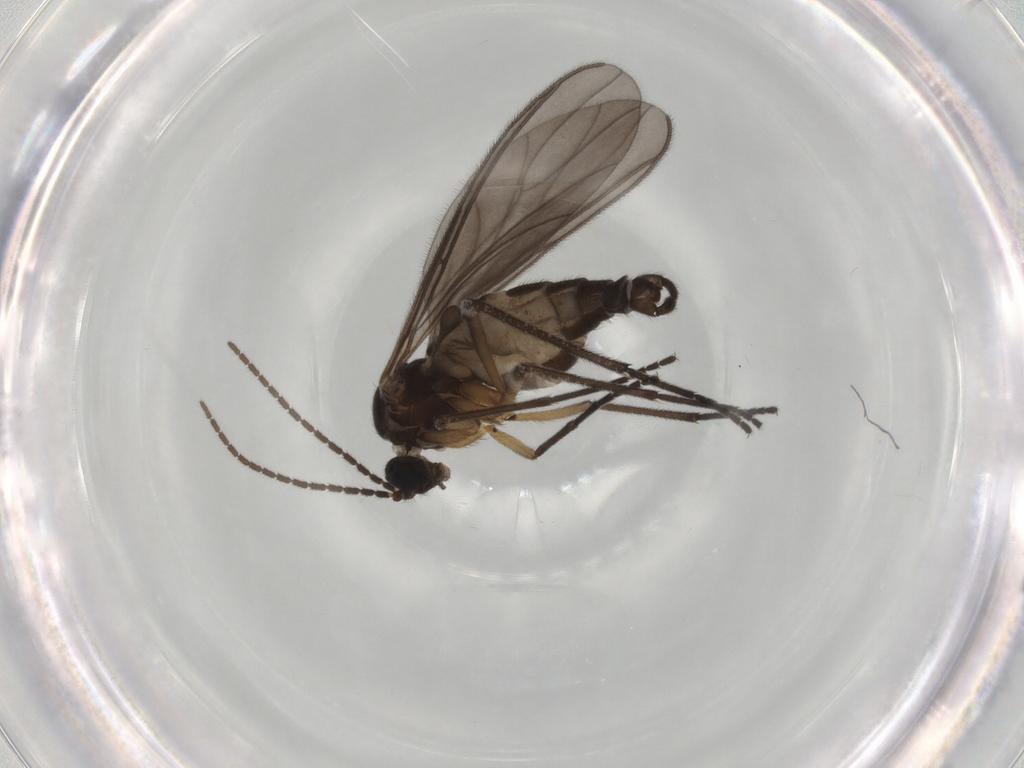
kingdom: Animalia
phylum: Arthropoda
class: Insecta
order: Diptera
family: Sciaridae
